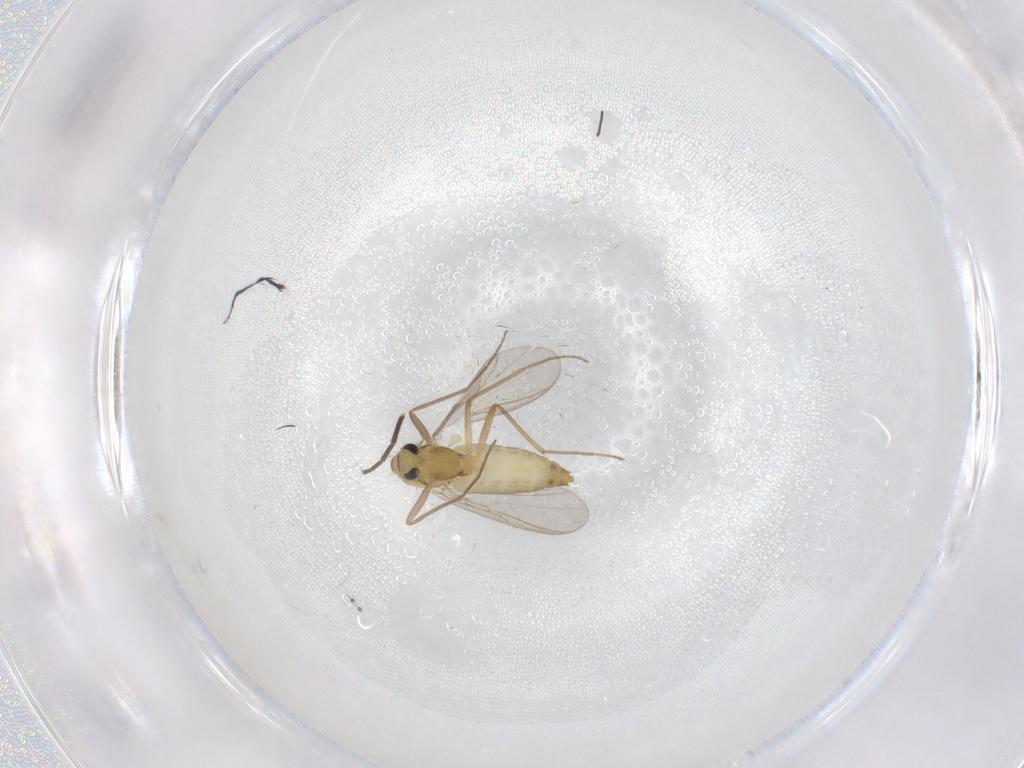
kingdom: Animalia
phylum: Arthropoda
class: Insecta
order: Diptera
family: Chironomidae
